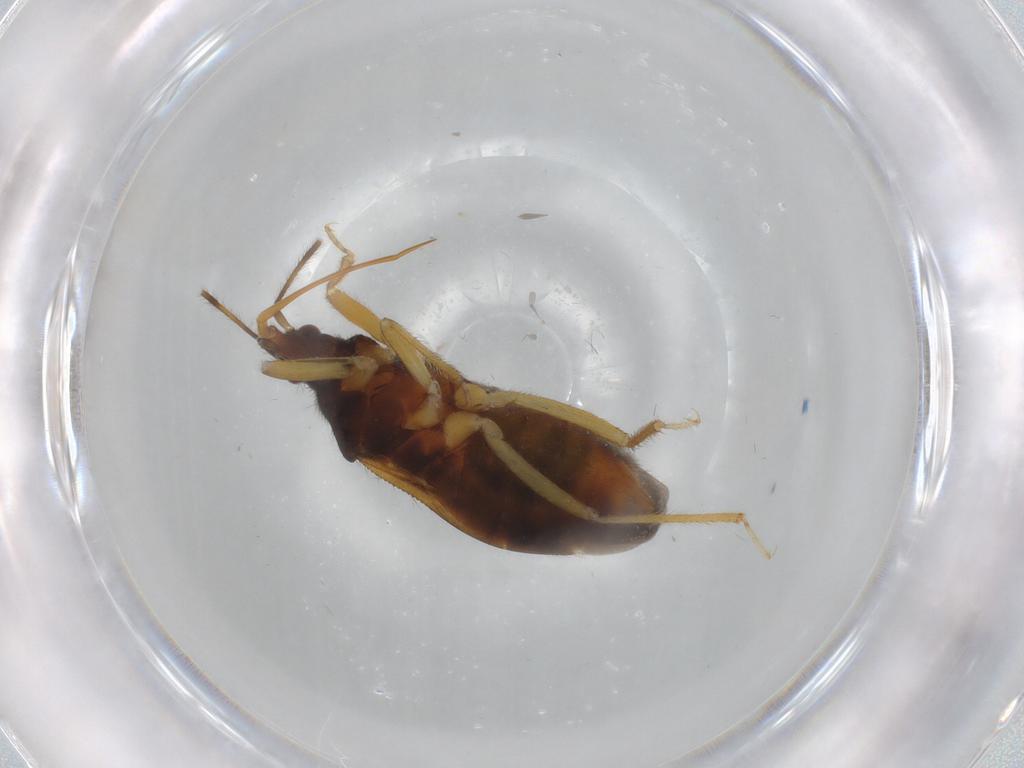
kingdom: Animalia
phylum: Arthropoda
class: Insecta
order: Hemiptera
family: Anthocoridae
